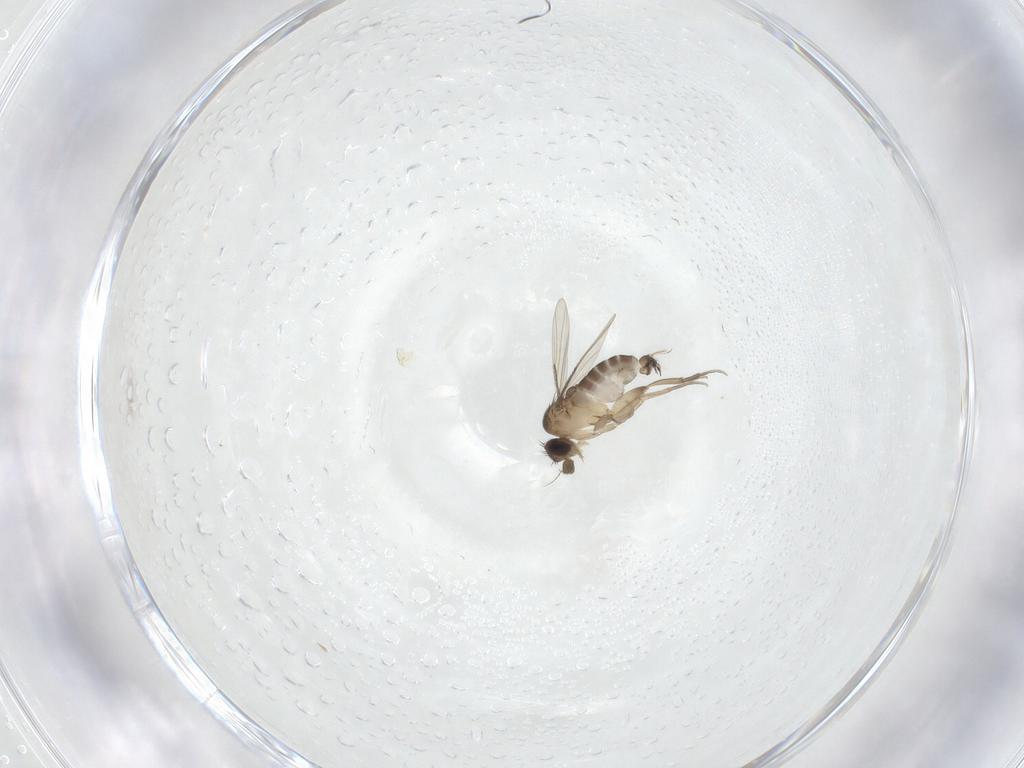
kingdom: Animalia
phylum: Arthropoda
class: Insecta
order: Diptera
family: Phoridae
